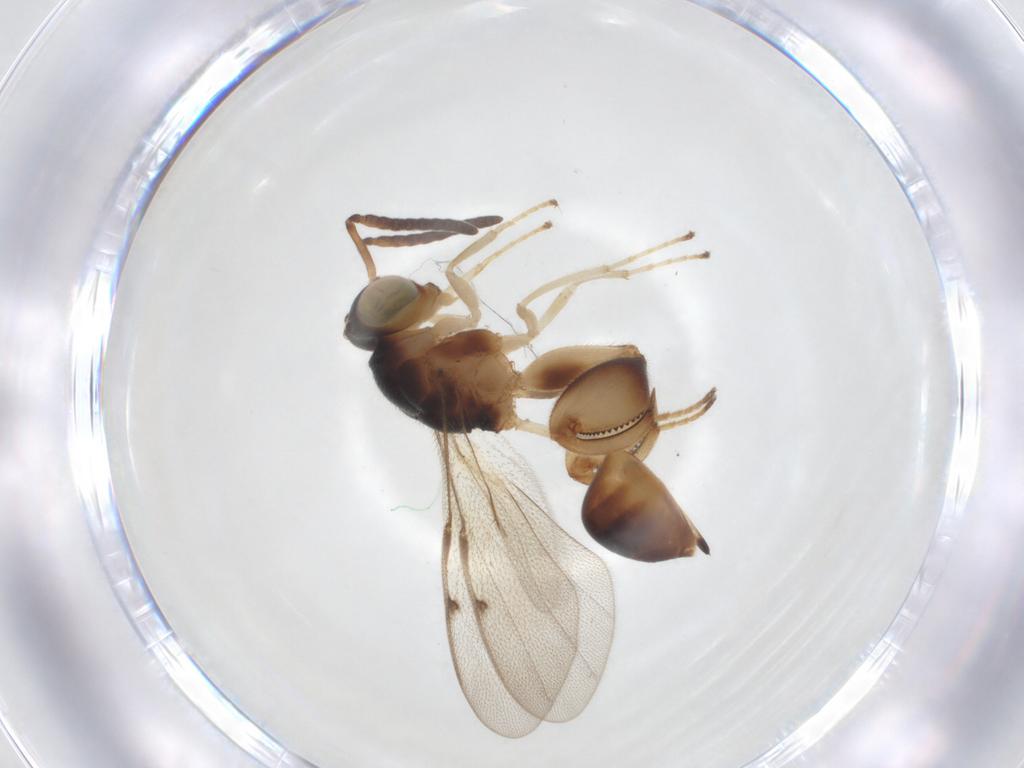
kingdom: Animalia
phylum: Arthropoda
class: Insecta
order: Hymenoptera
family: Chalcididae
